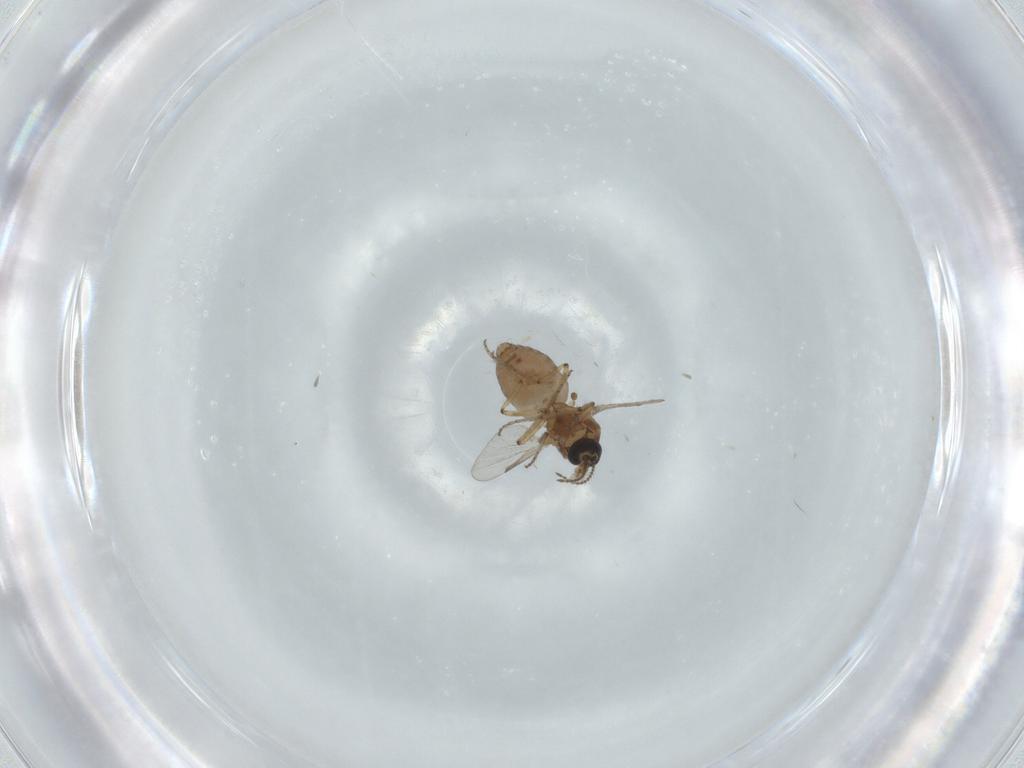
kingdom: Animalia
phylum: Arthropoda
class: Insecta
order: Diptera
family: Ceratopogonidae
